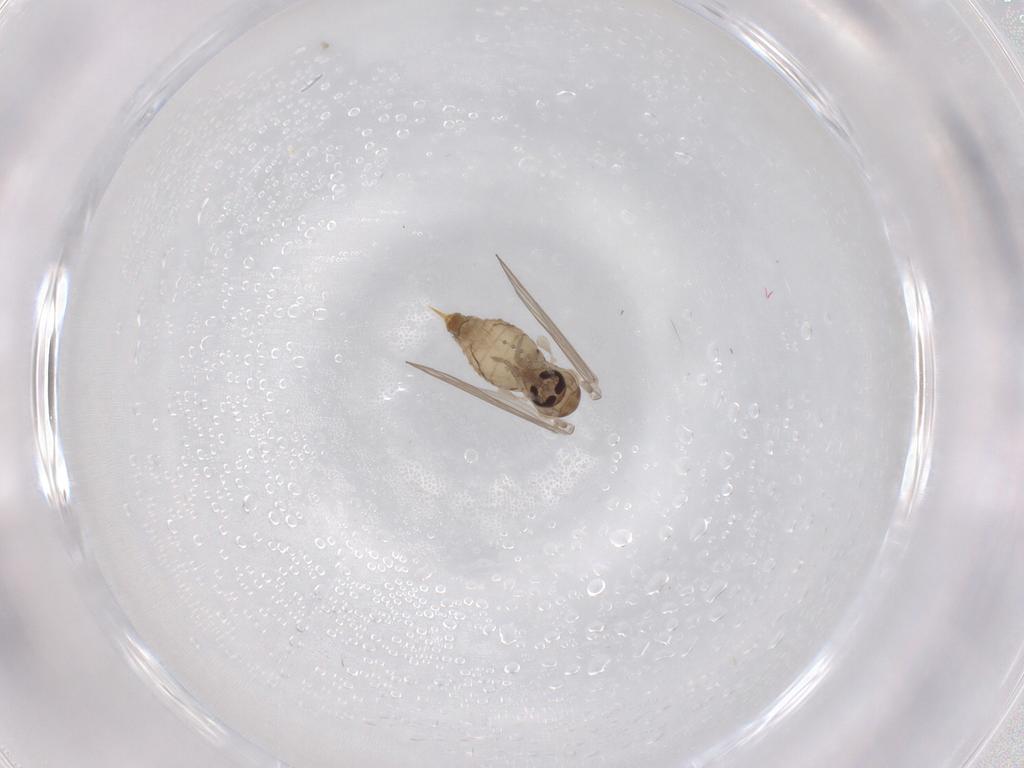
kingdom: Animalia
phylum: Arthropoda
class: Insecta
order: Diptera
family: Psychodidae
